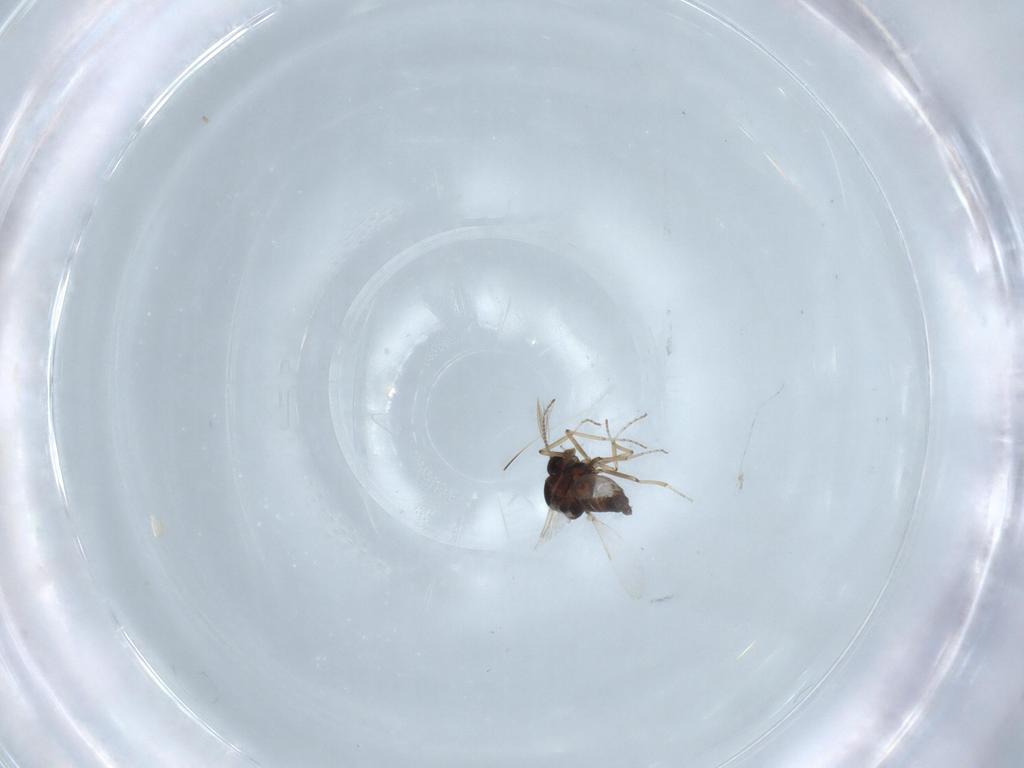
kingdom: Animalia
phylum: Arthropoda
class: Insecta
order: Diptera
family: Ceratopogonidae
